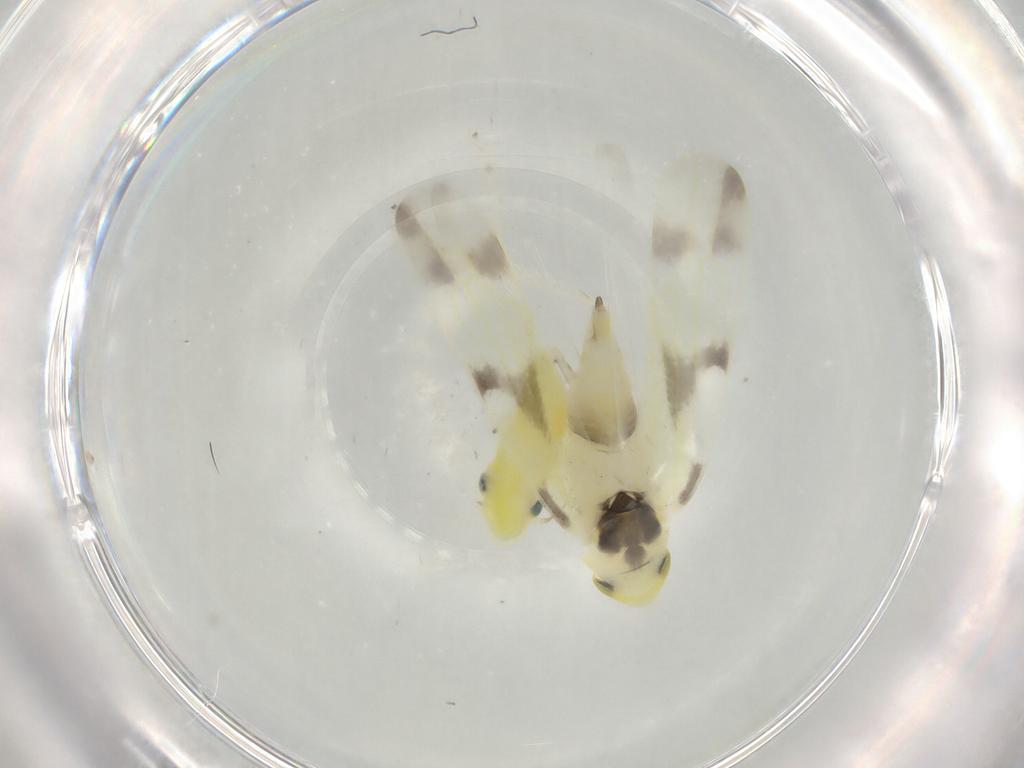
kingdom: Animalia
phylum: Arthropoda
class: Insecta
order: Hemiptera
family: Cicadellidae
